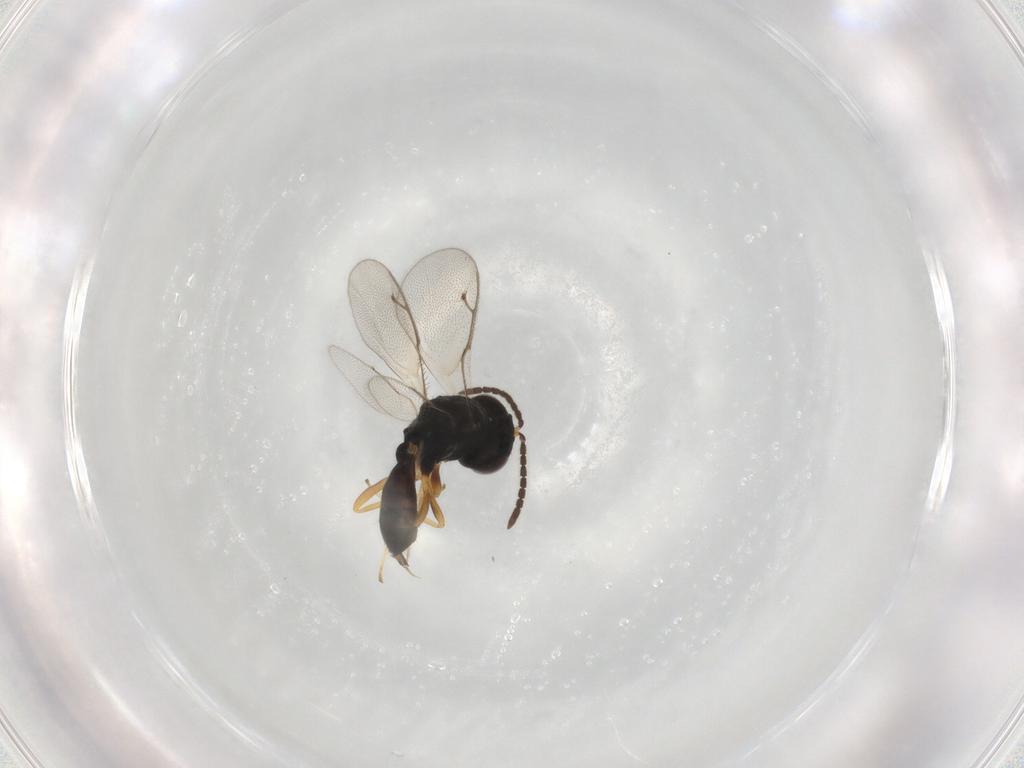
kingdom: Animalia
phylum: Arthropoda
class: Insecta
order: Hymenoptera
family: Pteromalidae
